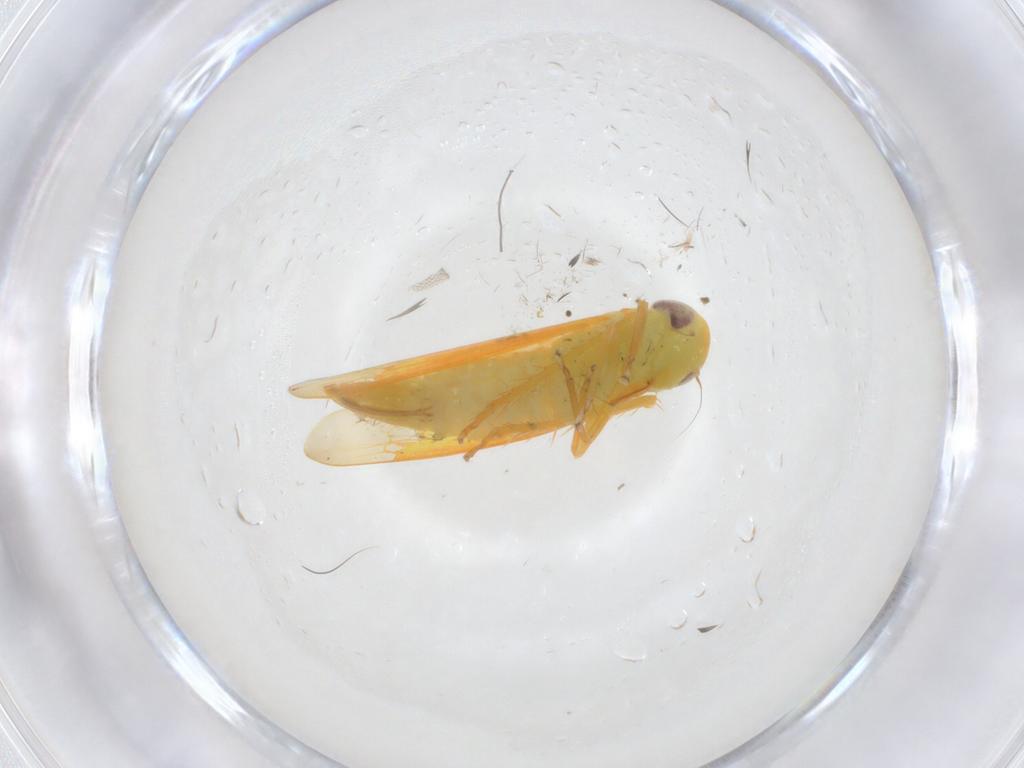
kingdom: Animalia
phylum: Arthropoda
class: Insecta
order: Hemiptera
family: Cicadellidae
